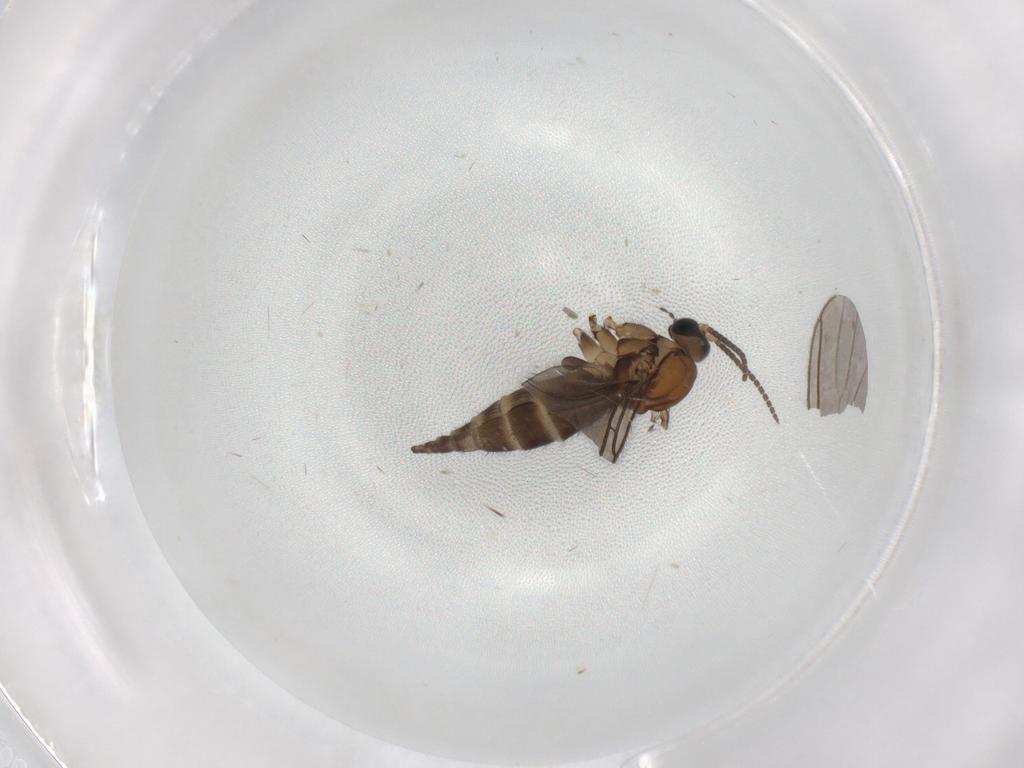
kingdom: Animalia
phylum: Arthropoda
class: Insecta
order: Diptera
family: Sciaridae
